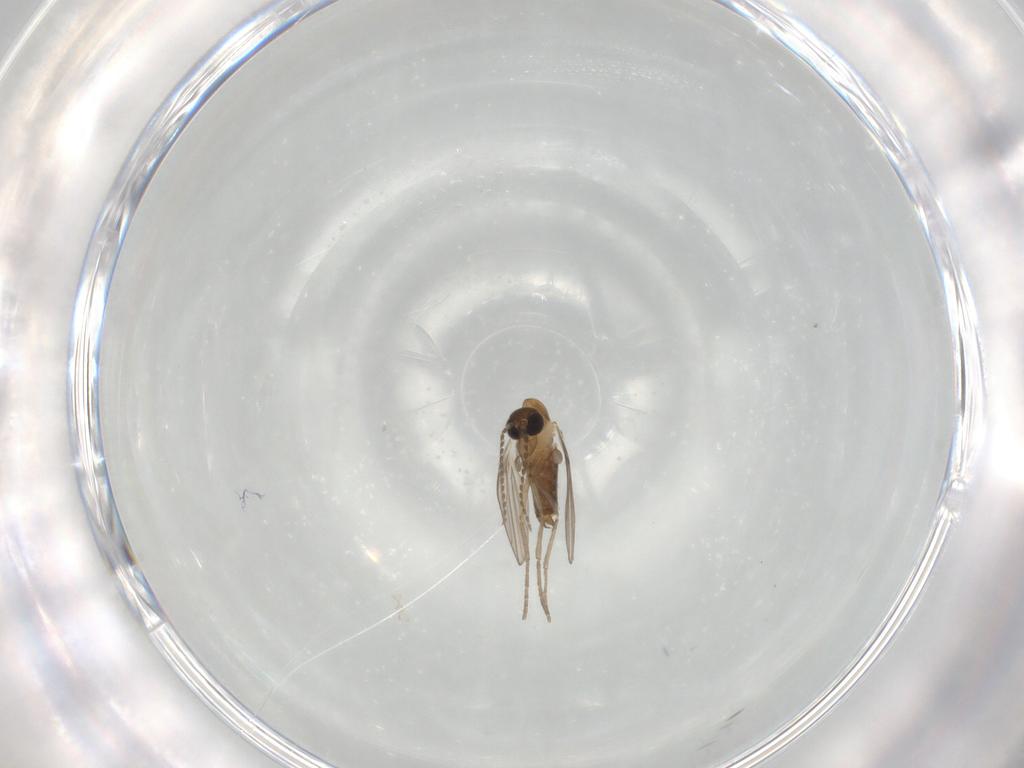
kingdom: Animalia
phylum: Arthropoda
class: Insecta
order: Diptera
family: Psychodidae
